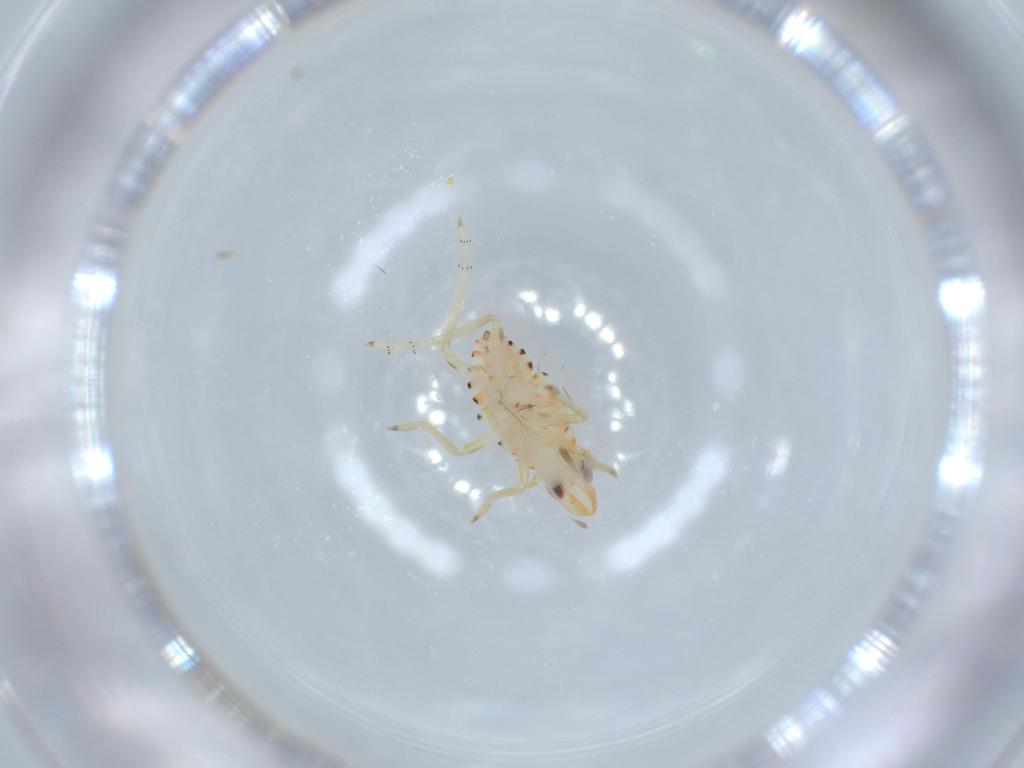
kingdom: Animalia
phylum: Arthropoda
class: Insecta
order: Hemiptera
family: Tropiduchidae
